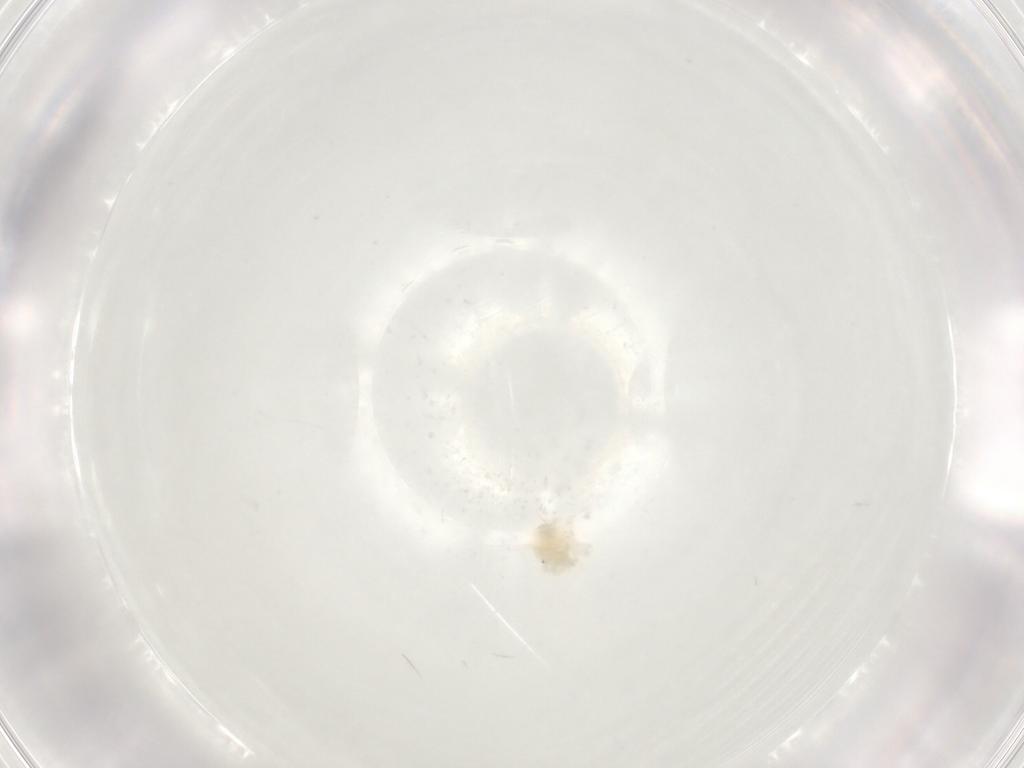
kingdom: Animalia
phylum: Arthropoda
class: Arachnida
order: Trombidiformes
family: Anystidae
